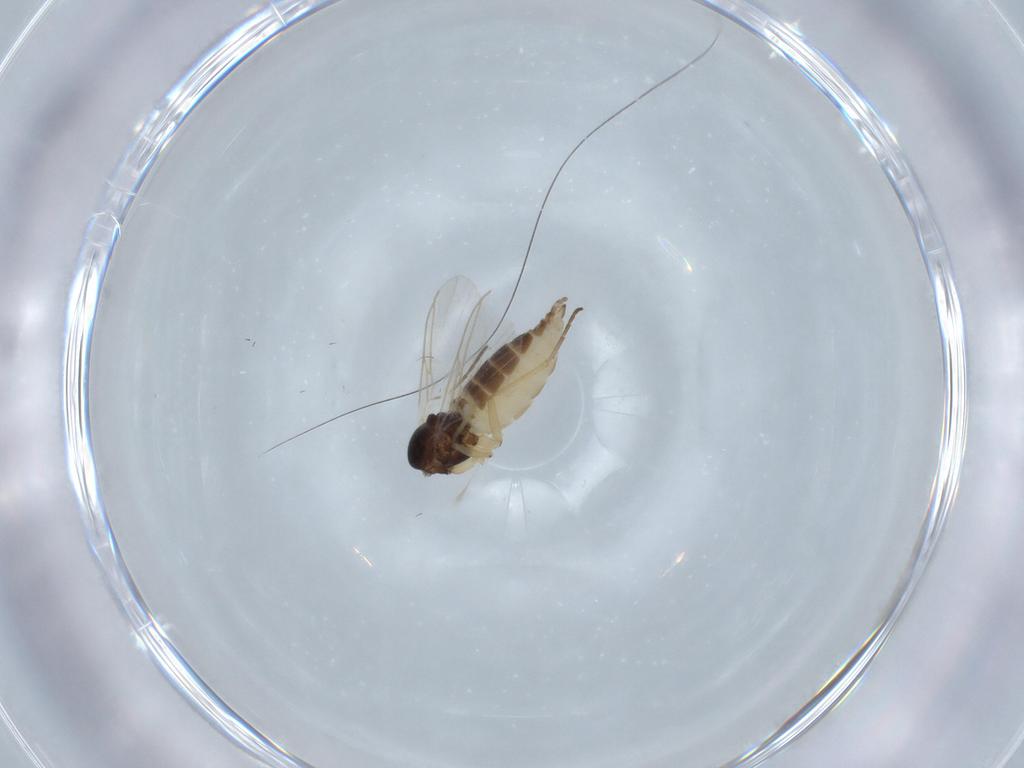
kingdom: Animalia
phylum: Arthropoda
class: Insecta
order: Diptera
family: Sciaridae
